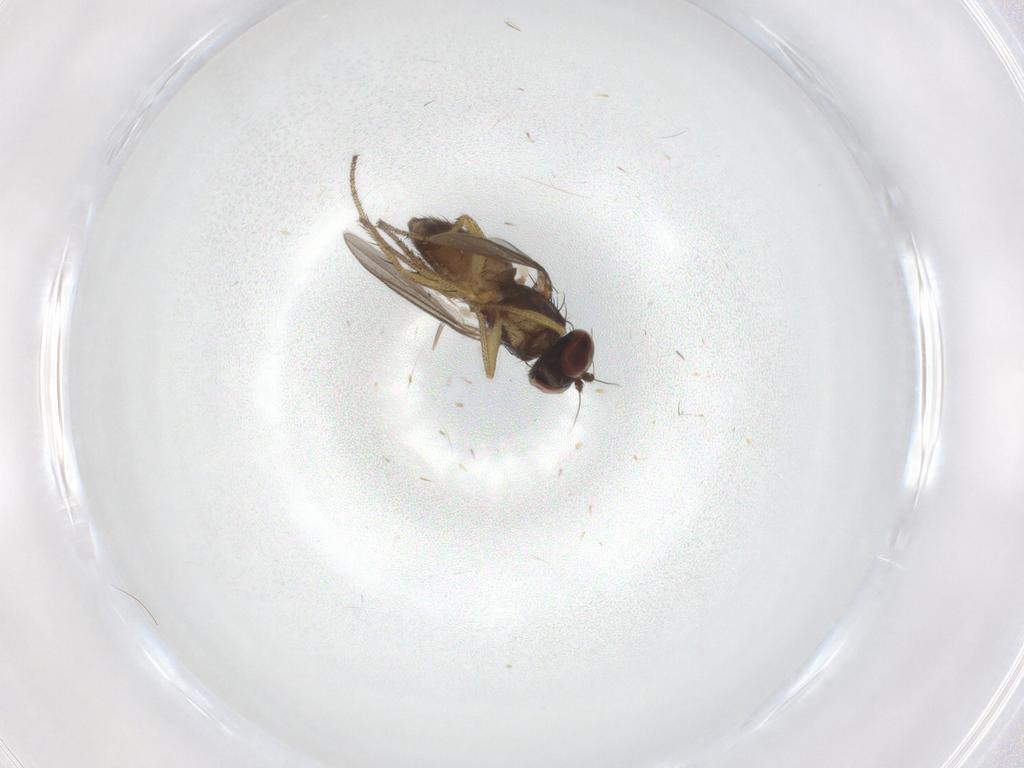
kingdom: Animalia
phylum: Arthropoda
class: Insecta
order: Diptera
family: Dolichopodidae
